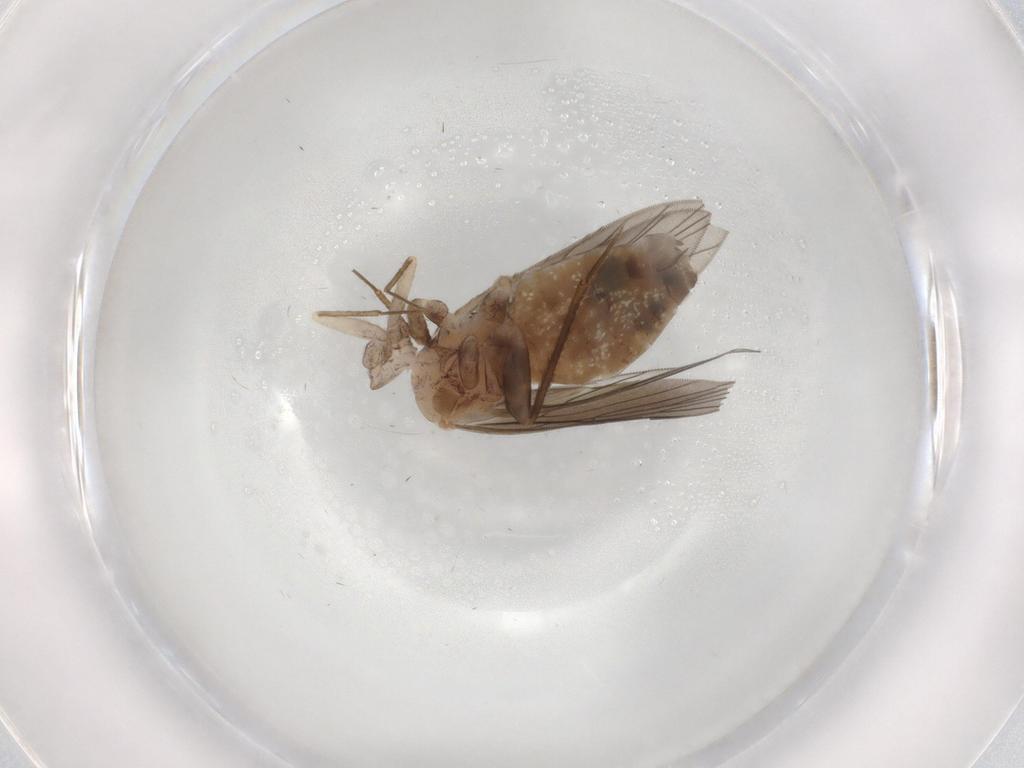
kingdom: Animalia
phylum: Arthropoda
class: Insecta
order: Psocodea
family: Lepidopsocidae
